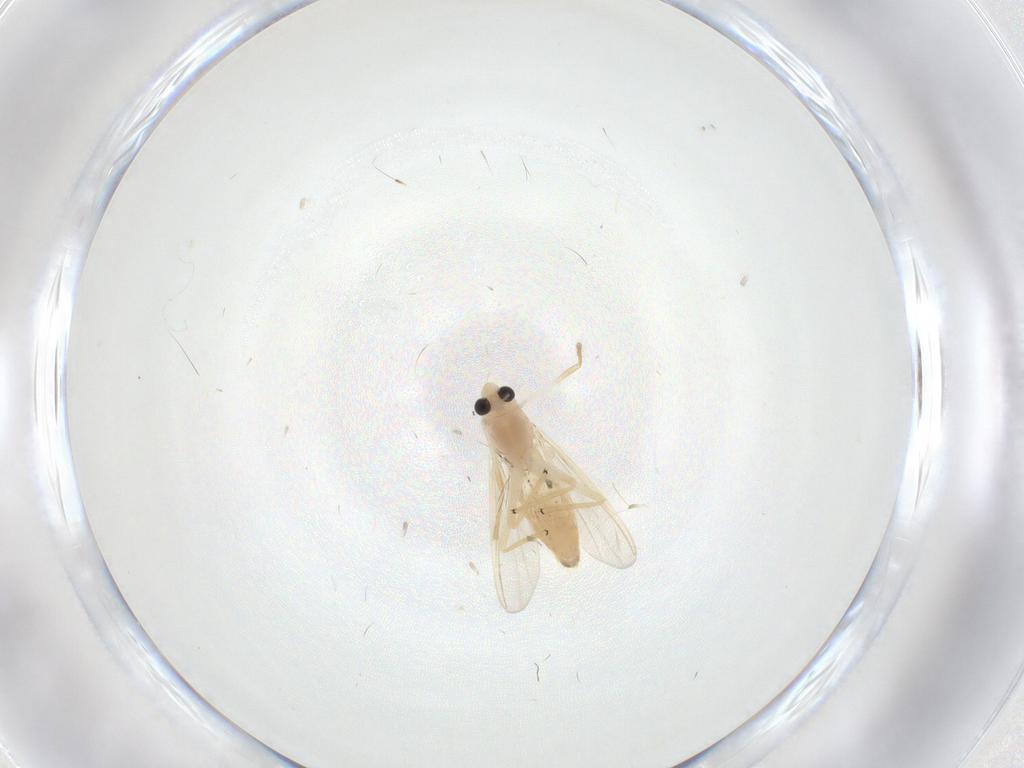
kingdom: Animalia
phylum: Arthropoda
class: Insecta
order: Diptera
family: Chironomidae
